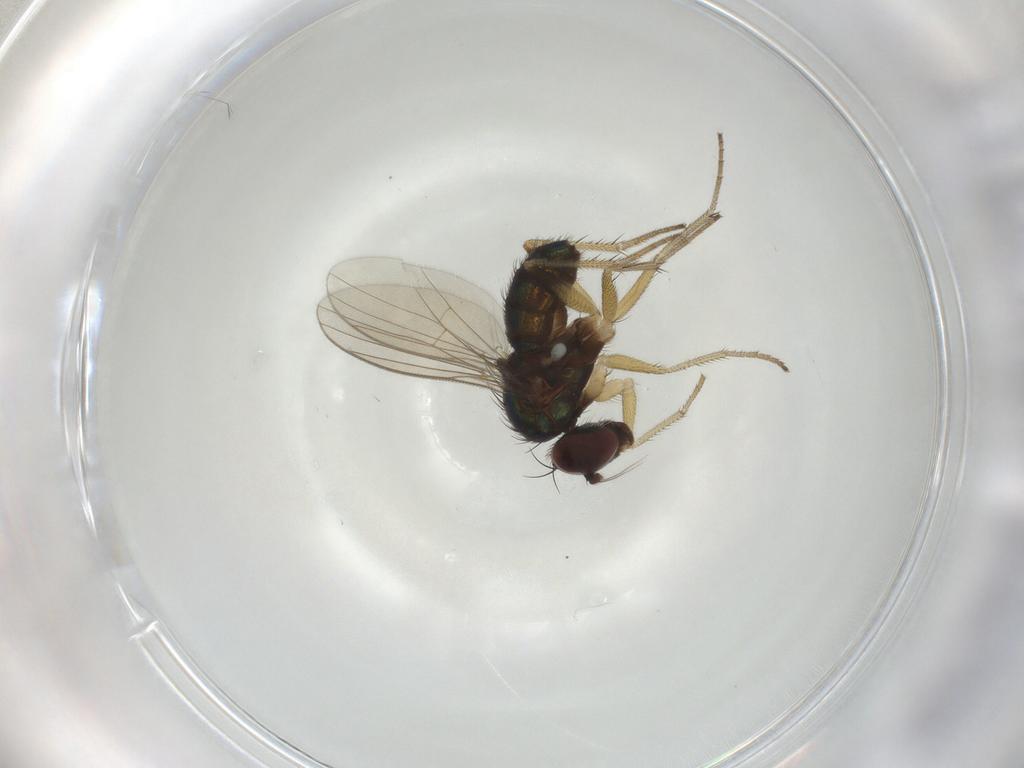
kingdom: Animalia
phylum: Arthropoda
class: Insecta
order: Diptera
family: Dolichopodidae
